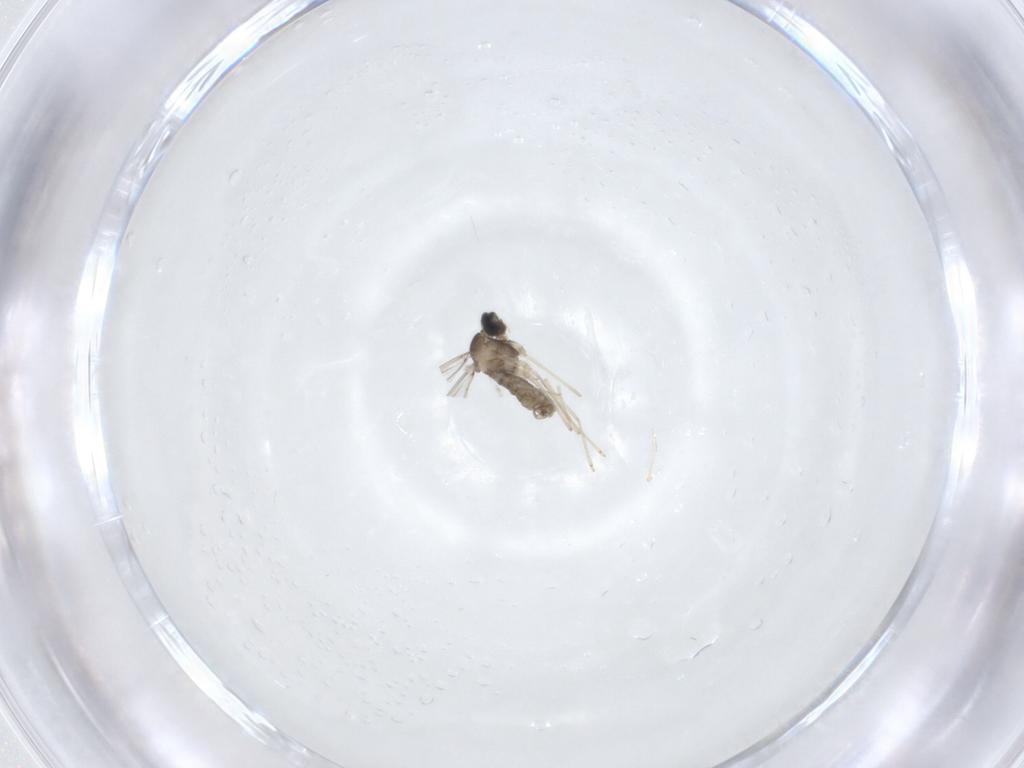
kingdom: Animalia
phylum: Arthropoda
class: Insecta
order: Diptera
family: Cecidomyiidae
